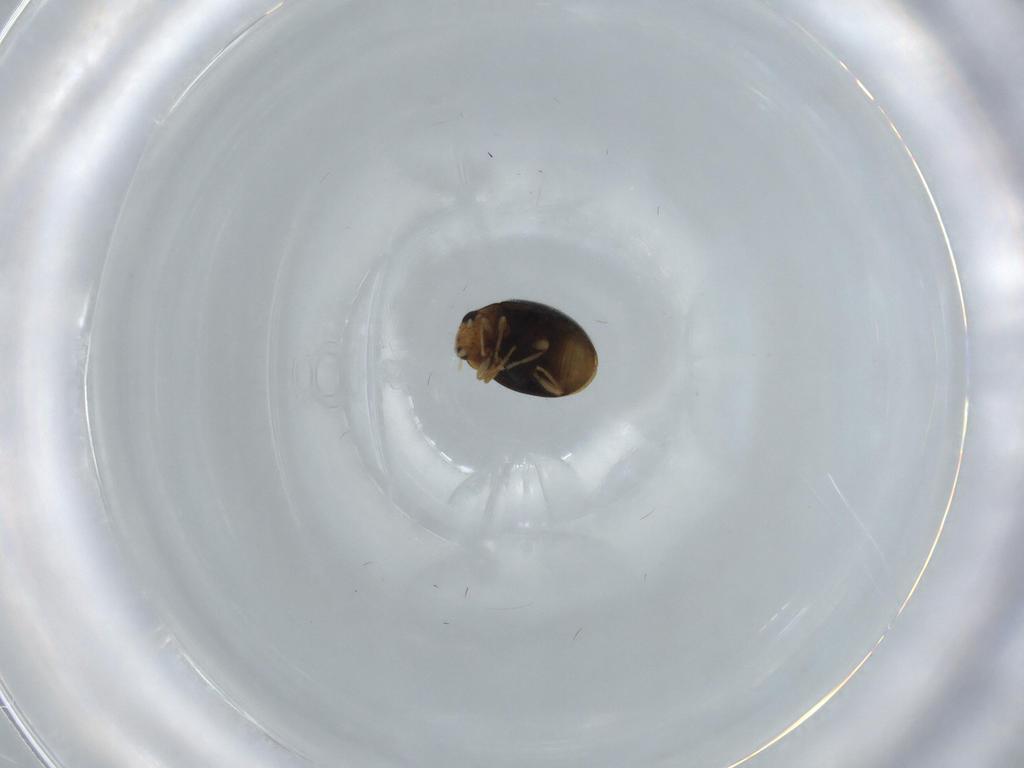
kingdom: Animalia
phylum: Arthropoda
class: Insecta
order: Coleoptera
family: Coccinellidae
